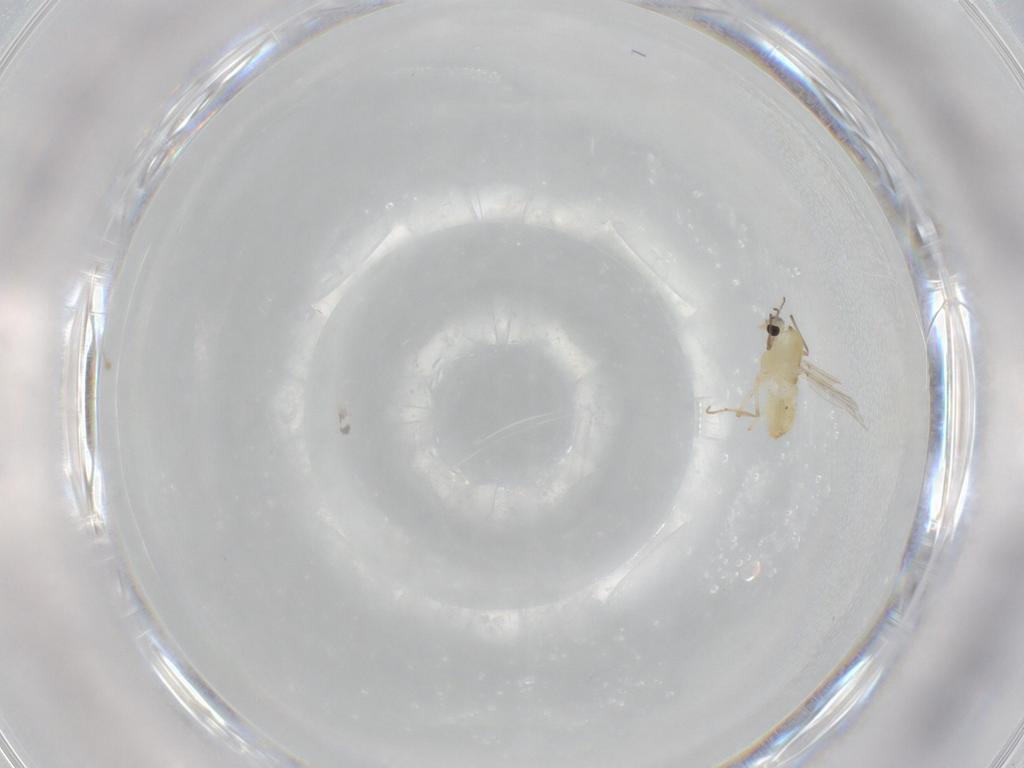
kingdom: Animalia
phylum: Arthropoda
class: Insecta
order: Diptera
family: Chironomidae
